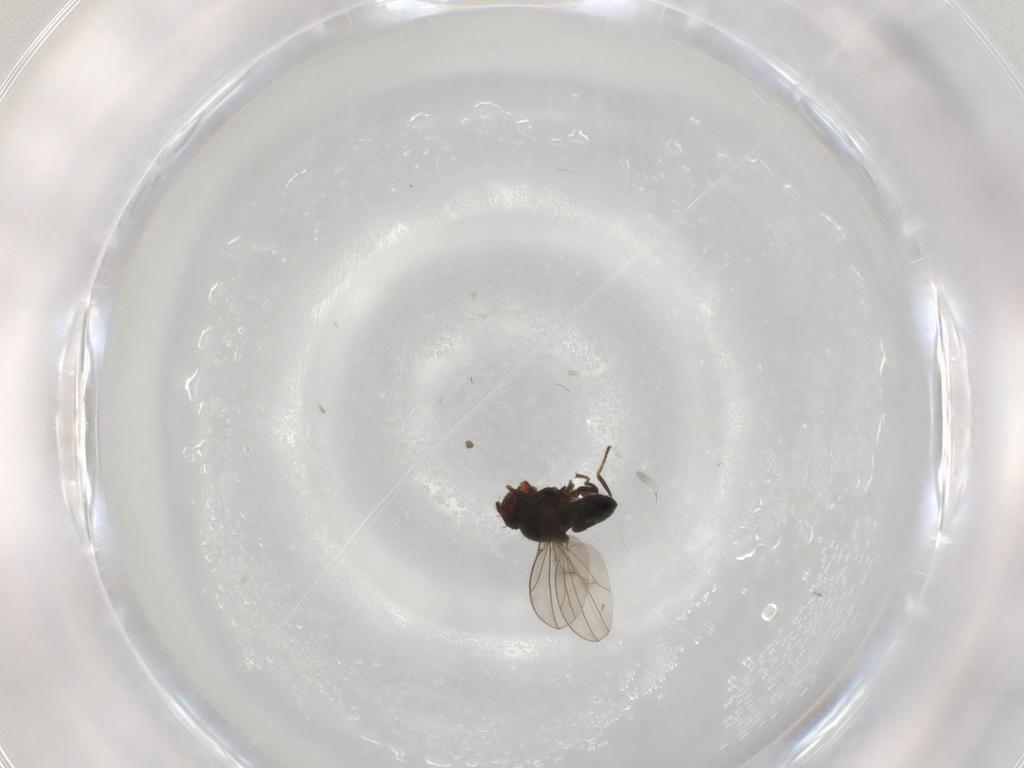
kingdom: Animalia
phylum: Arthropoda
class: Insecta
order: Diptera
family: Ephydridae
